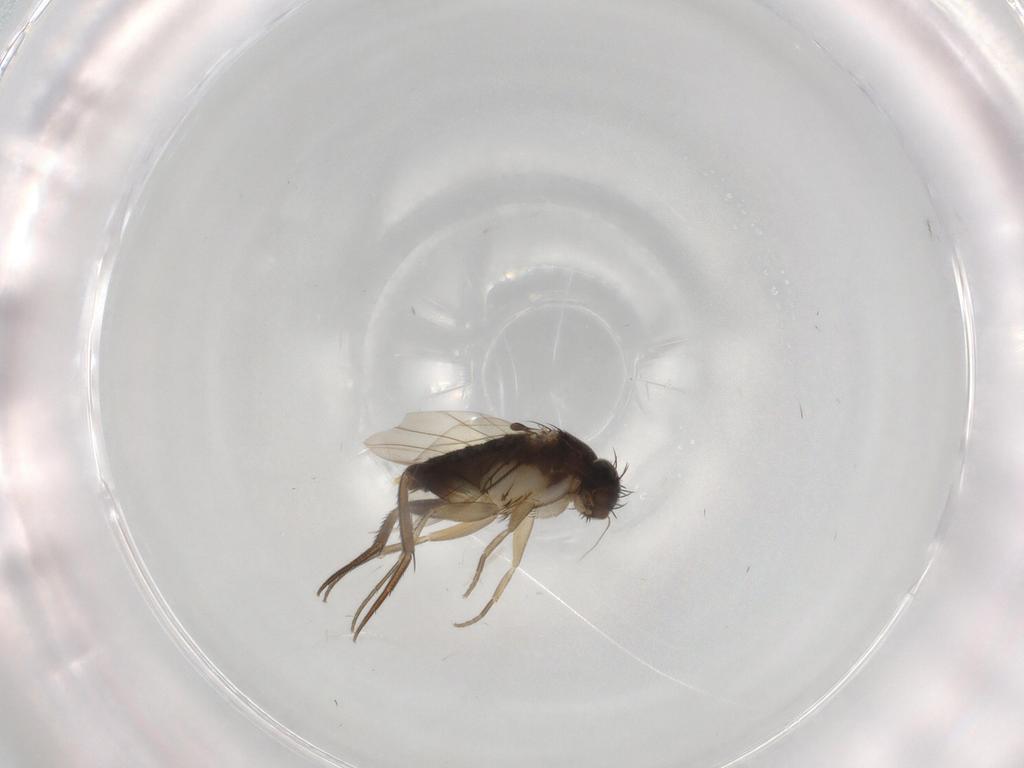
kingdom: Animalia
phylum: Arthropoda
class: Insecta
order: Diptera
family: Phoridae
